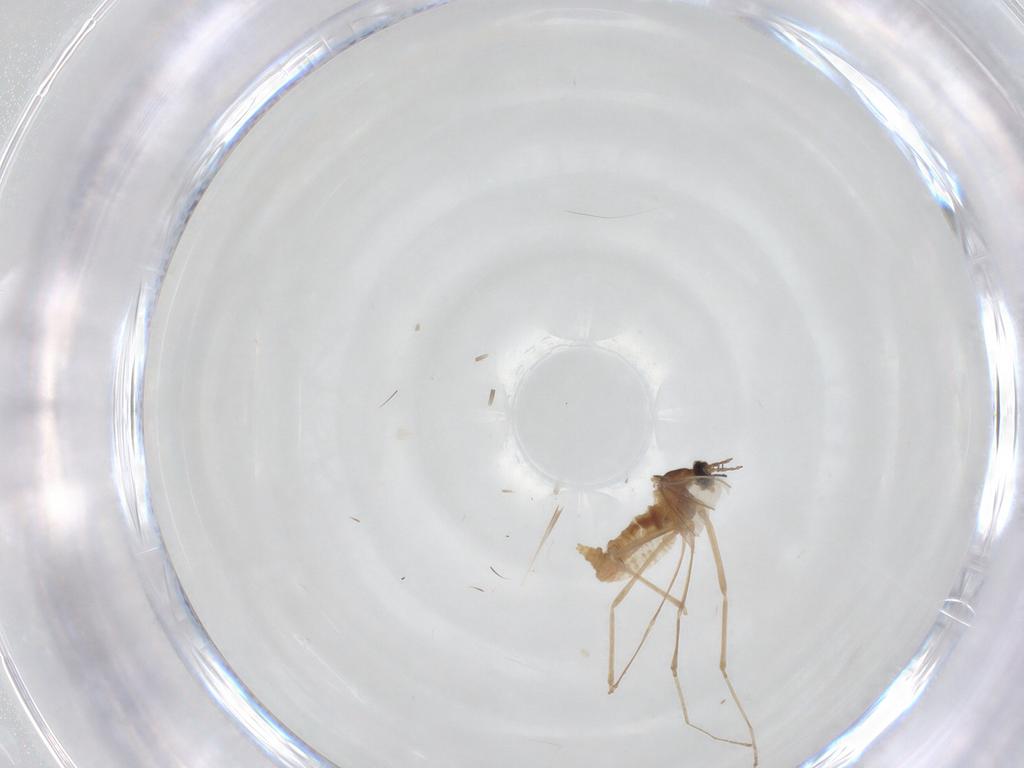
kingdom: Animalia
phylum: Arthropoda
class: Insecta
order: Diptera
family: Cecidomyiidae
